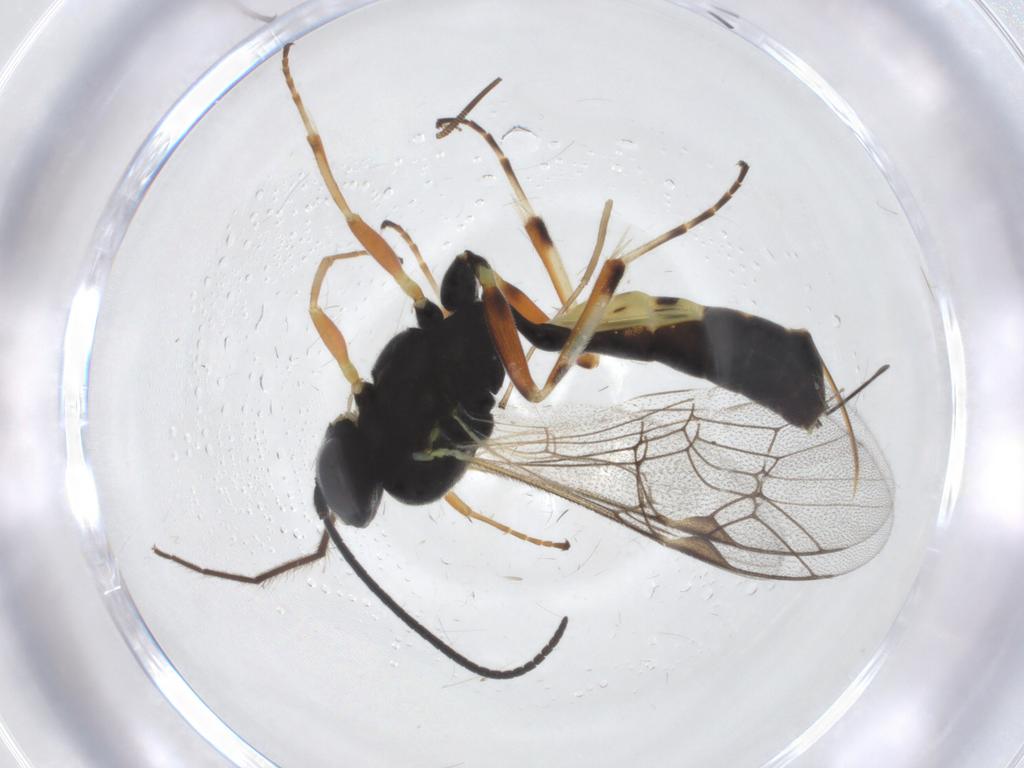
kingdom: Animalia
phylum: Arthropoda
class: Insecta
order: Hymenoptera
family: Ichneumonidae
